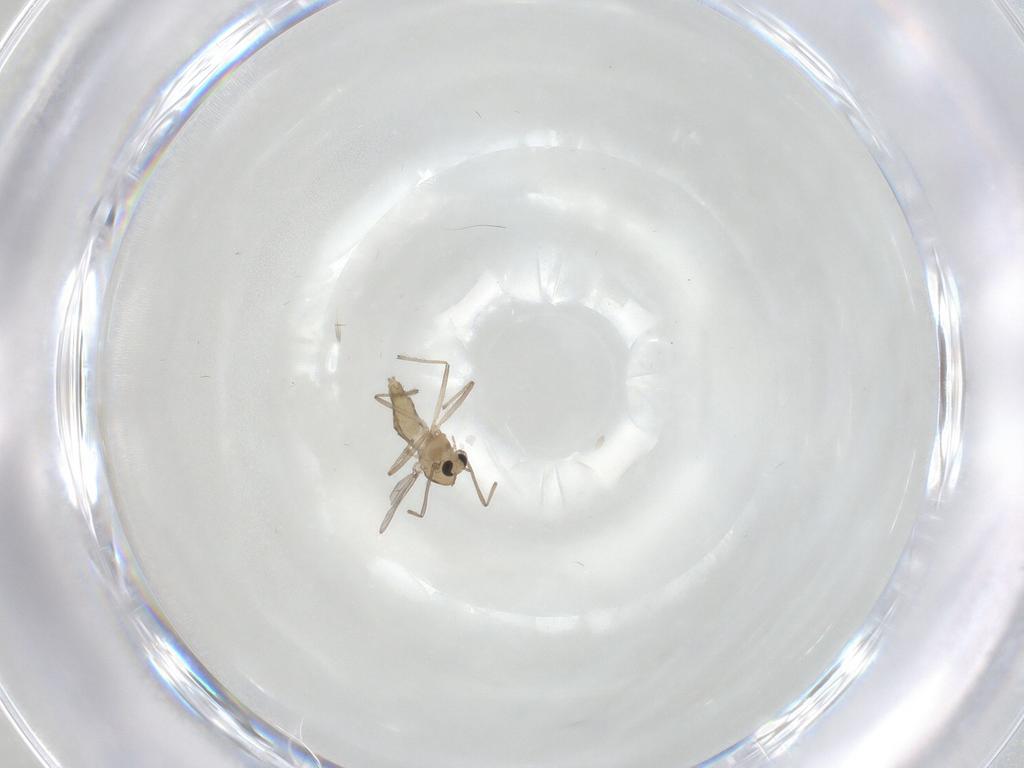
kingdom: Animalia
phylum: Arthropoda
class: Insecta
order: Diptera
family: Chironomidae
